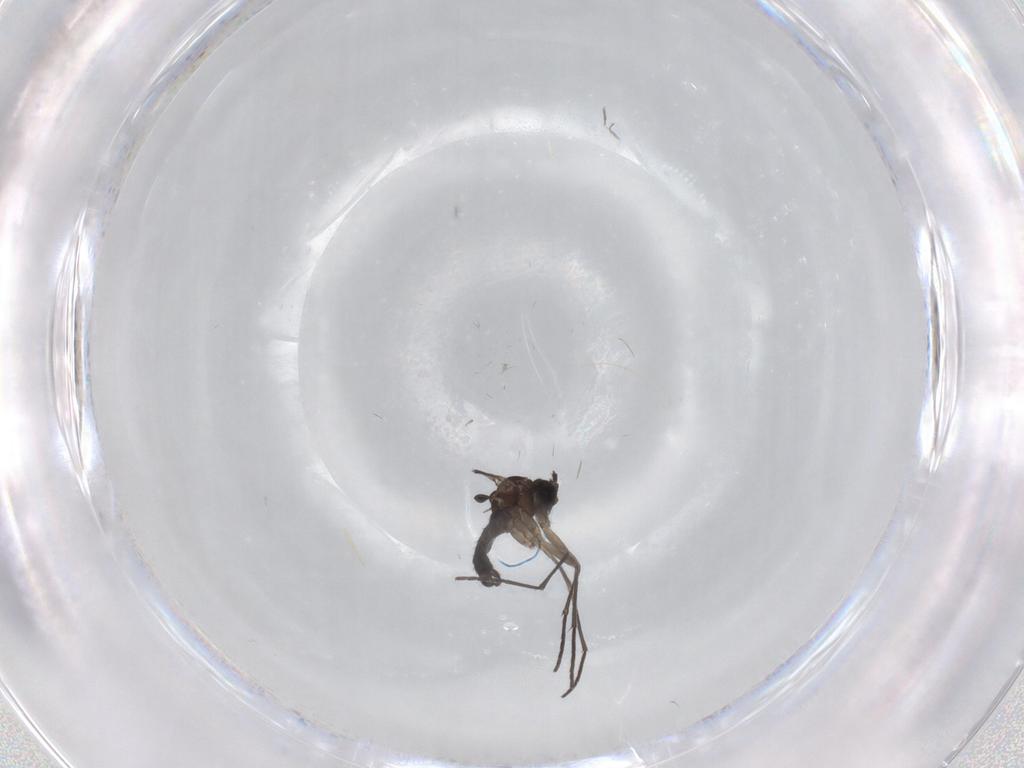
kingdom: Animalia
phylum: Arthropoda
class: Insecta
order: Diptera
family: Sciaridae
